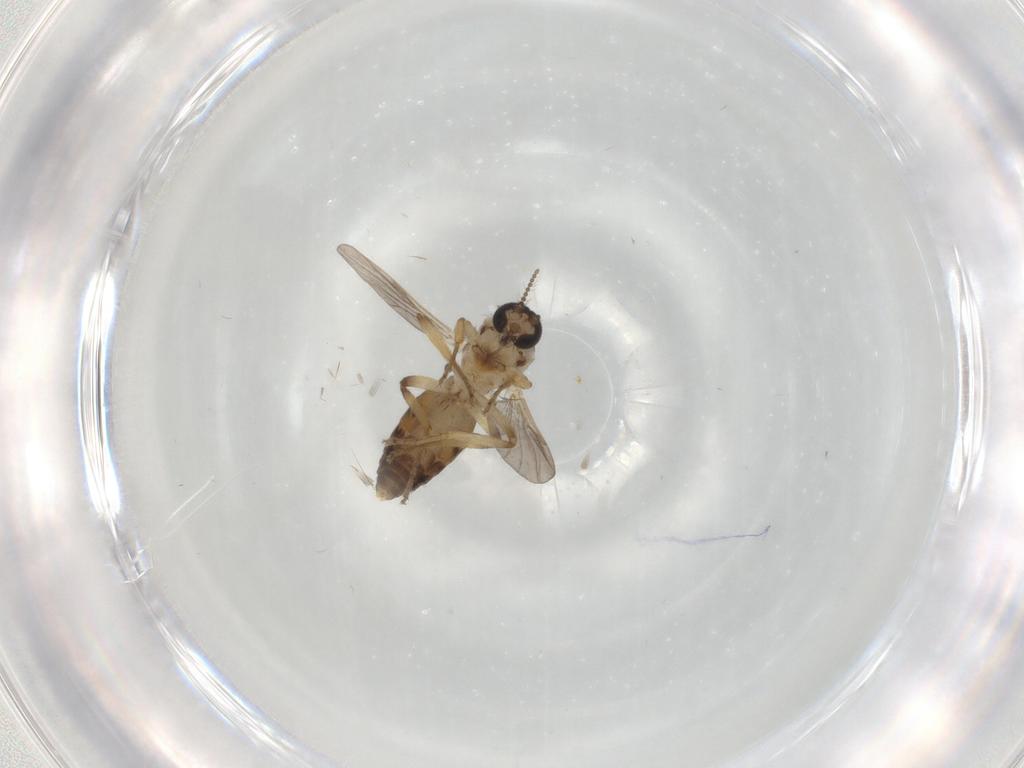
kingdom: Animalia
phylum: Arthropoda
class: Insecta
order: Diptera
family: Ceratopogonidae
